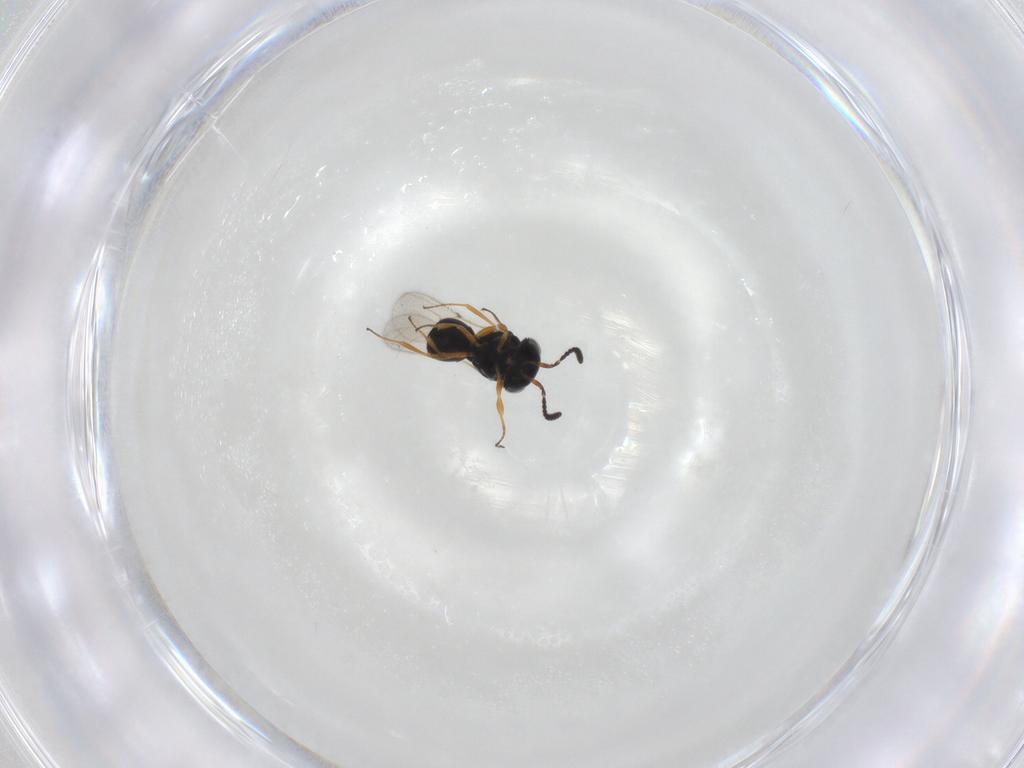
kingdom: Animalia
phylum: Arthropoda
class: Insecta
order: Hymenoptera
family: Scelionidae
